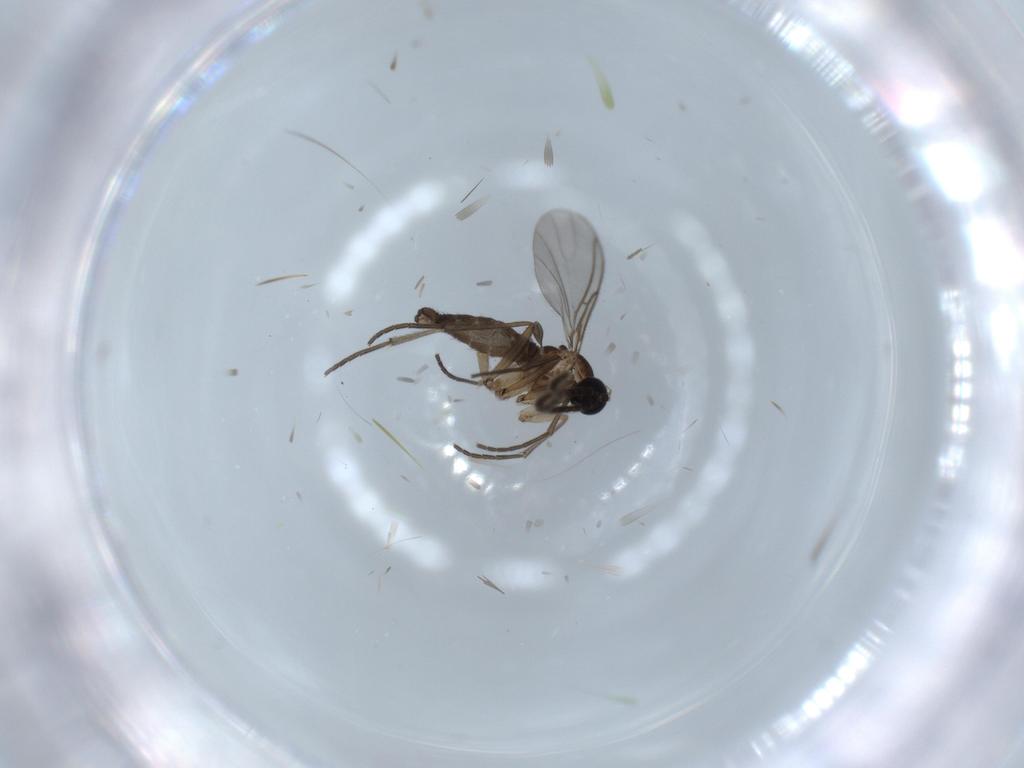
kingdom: Animalia
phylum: Arthropoda
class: Insecta
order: Diptera
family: Sciaridae
